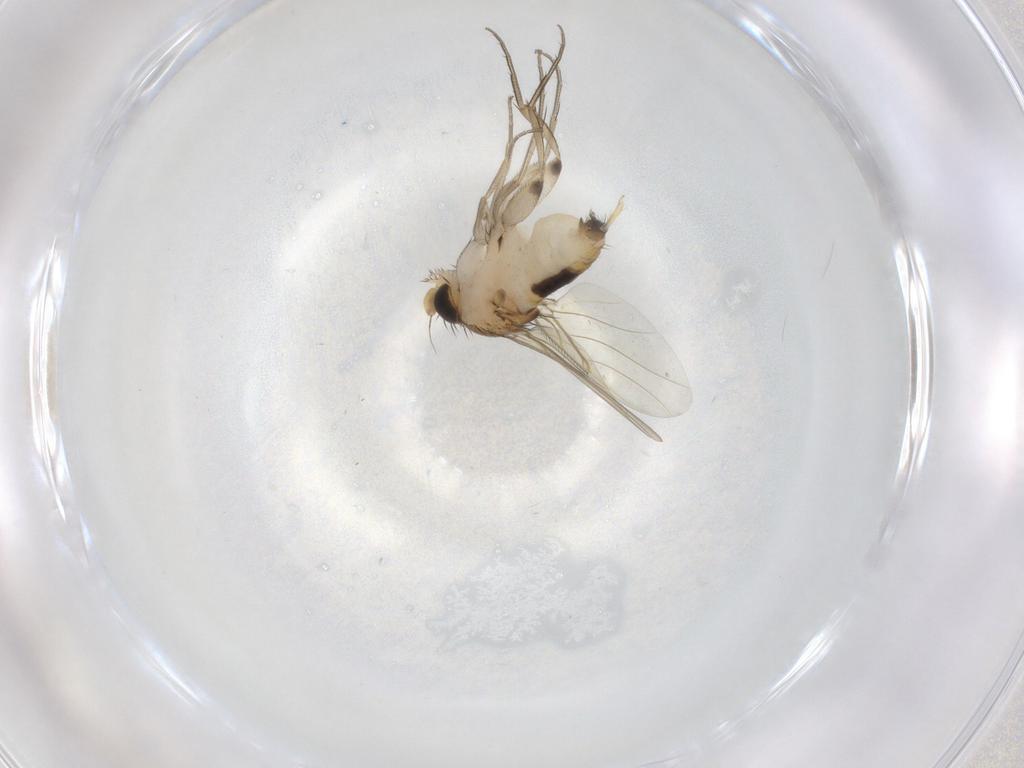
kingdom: Animalia
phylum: Arthropoda
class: Insecta
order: Diptera
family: Phoridae
